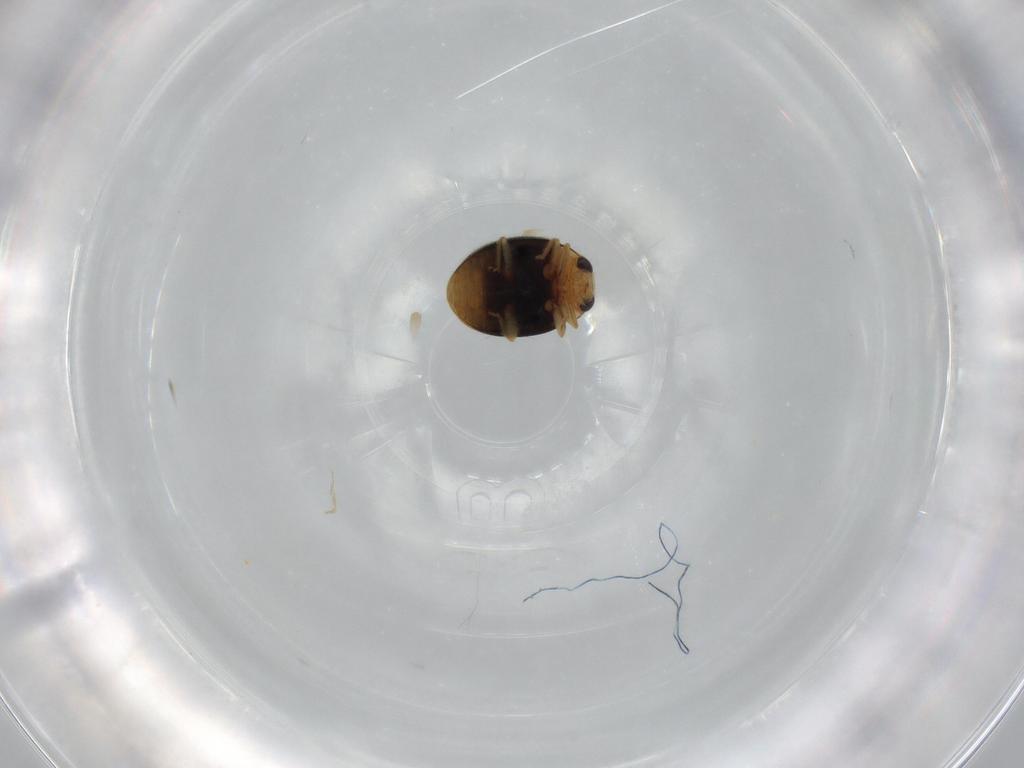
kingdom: Animalia
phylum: Arthropoda
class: Insecta
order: Coleoptera
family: Coccinellidae
